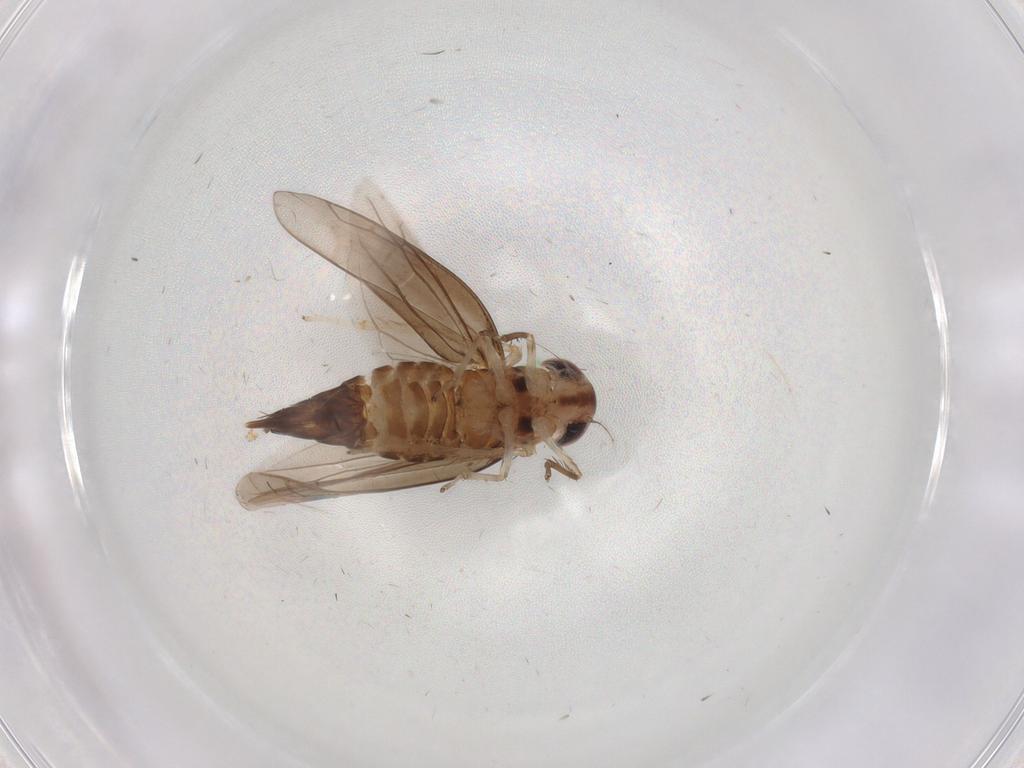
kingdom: Animalia
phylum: Arthropoda
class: Insecta
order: Hemiptera
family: Cicadellidae
